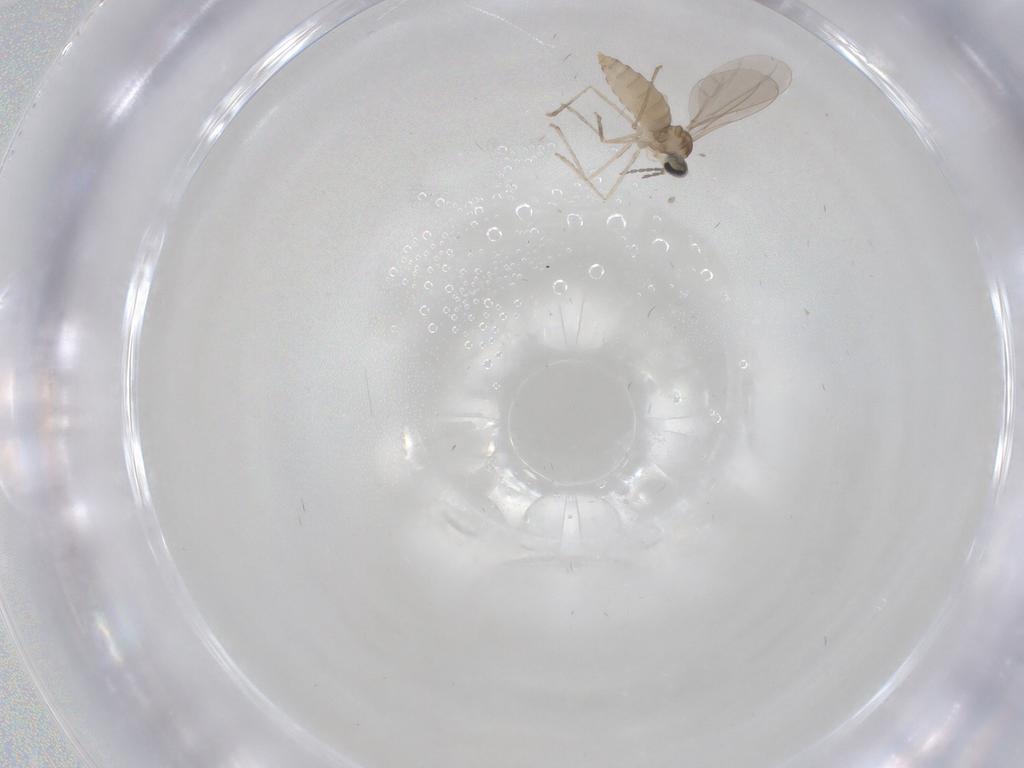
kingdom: Animalia
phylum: Arthropoda
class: Insecta
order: Diptera
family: Cecidomyiidae
